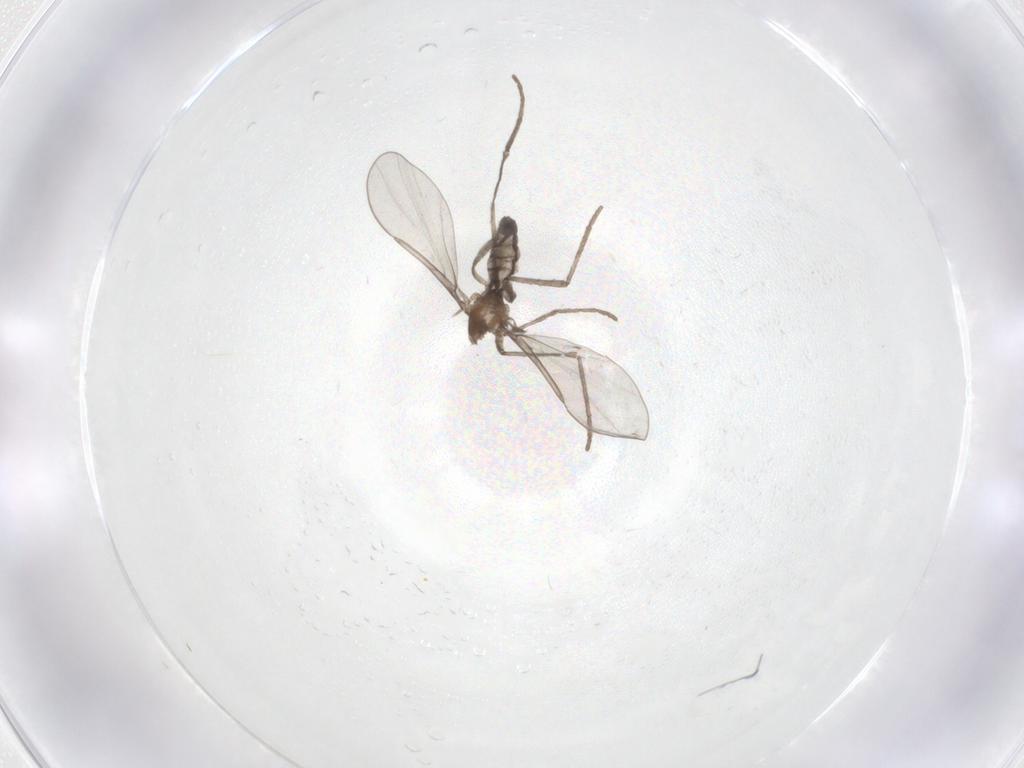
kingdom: Animalia
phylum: Arthropoda
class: Insecta
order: Diptera
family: Cecidomyiidae
